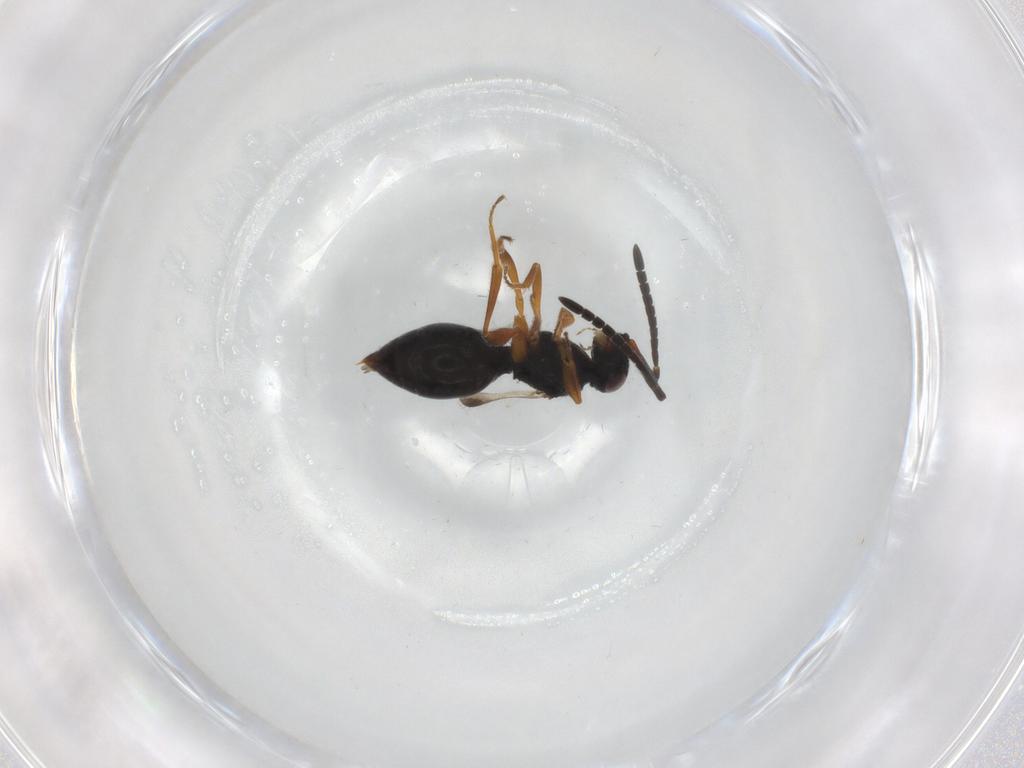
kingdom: Animalia
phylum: Arthropoda
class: Insecta
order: Hymenoptera
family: Megaspilidae
